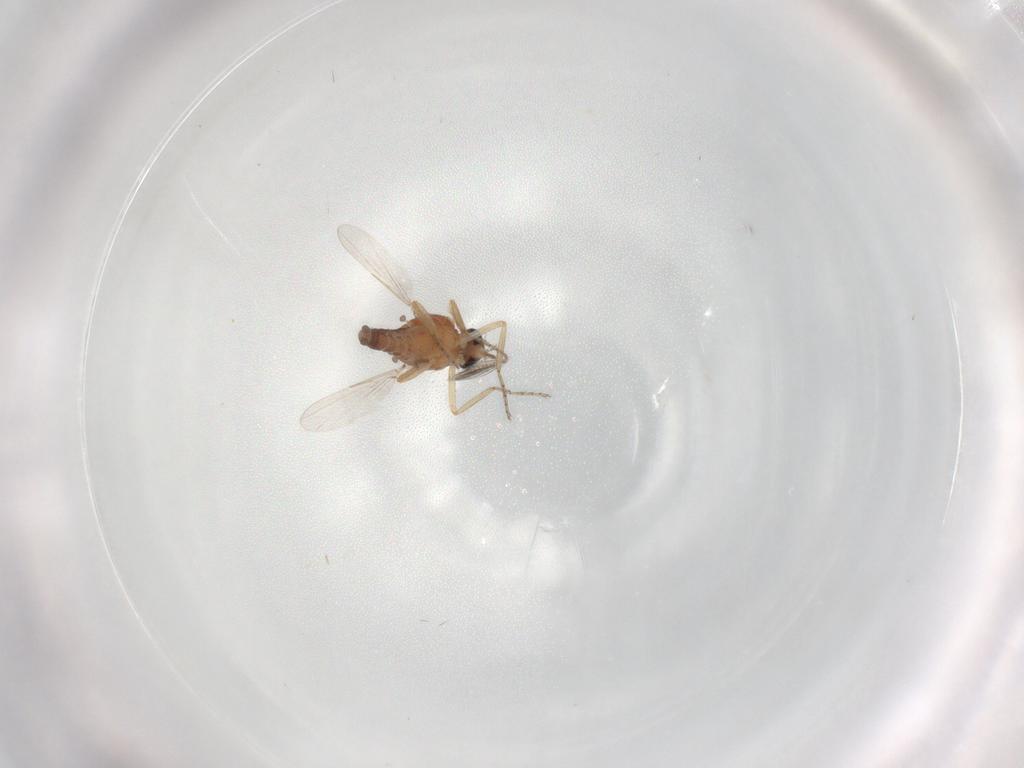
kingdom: Animalia
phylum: Arthropoda
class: Insecta
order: Diptera
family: Ceratopogonidae
